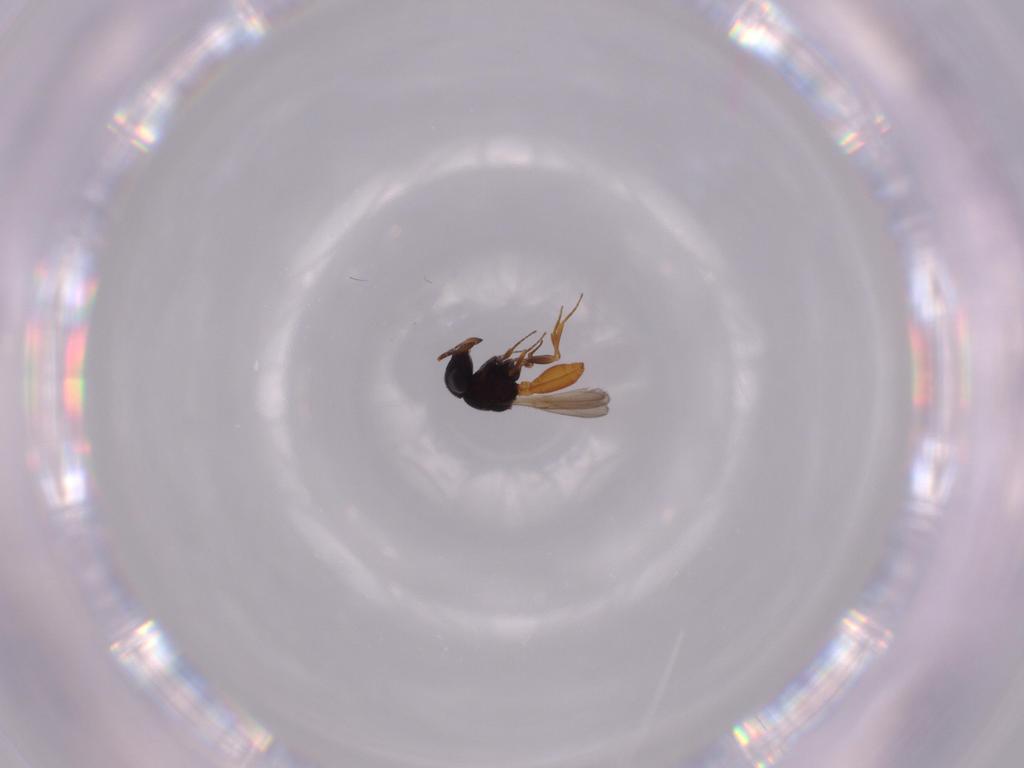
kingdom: Animalia
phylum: Arthropoda
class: Insecta
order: Hymenoptera
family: Scelionidae
